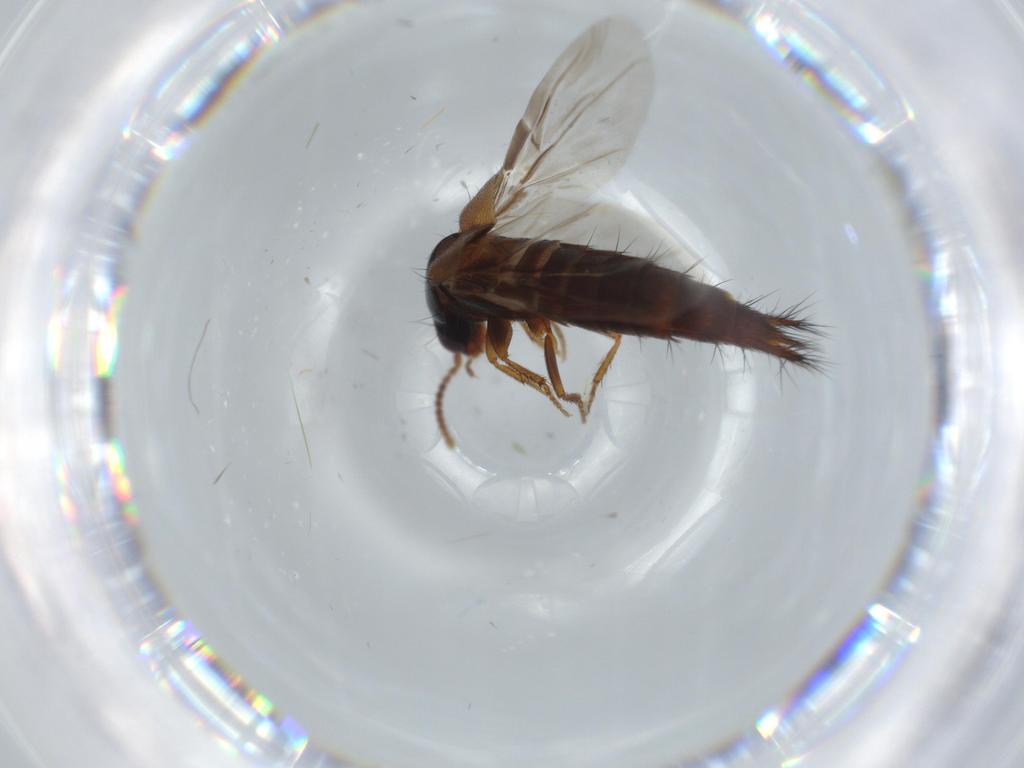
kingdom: Animalia
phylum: Arthropoda
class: Insecta
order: Coleoptera
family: Staphylinidae
